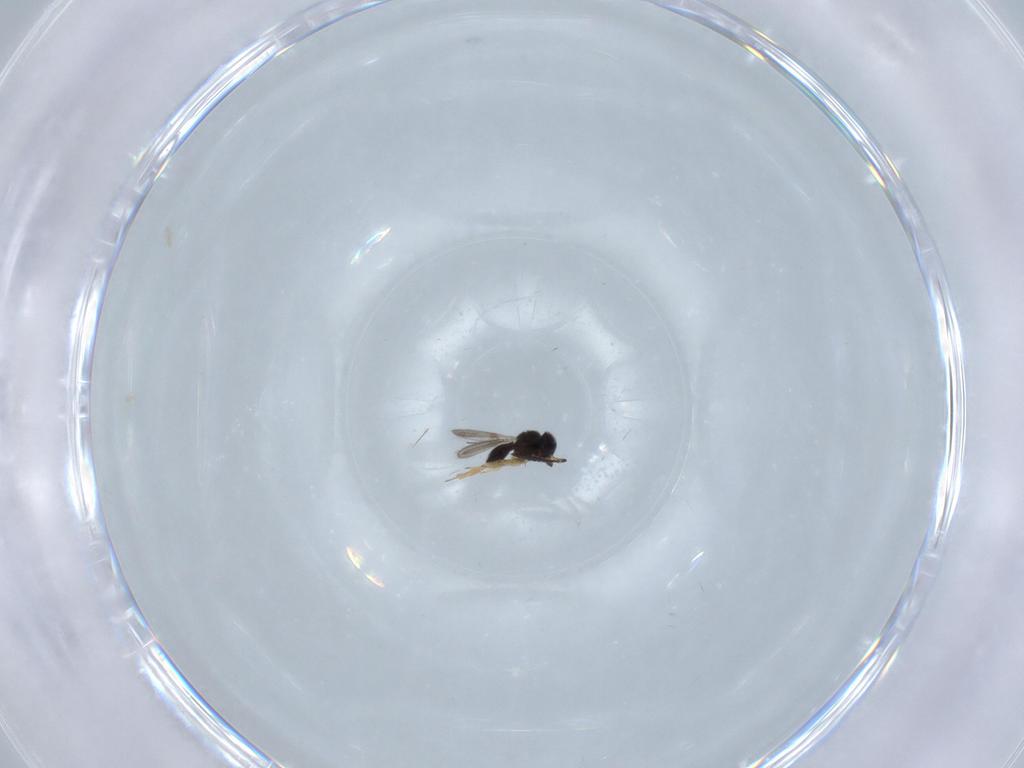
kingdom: Animalia
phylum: Arthropoda
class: Insecta
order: Hymenoptera
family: Scelionidae
